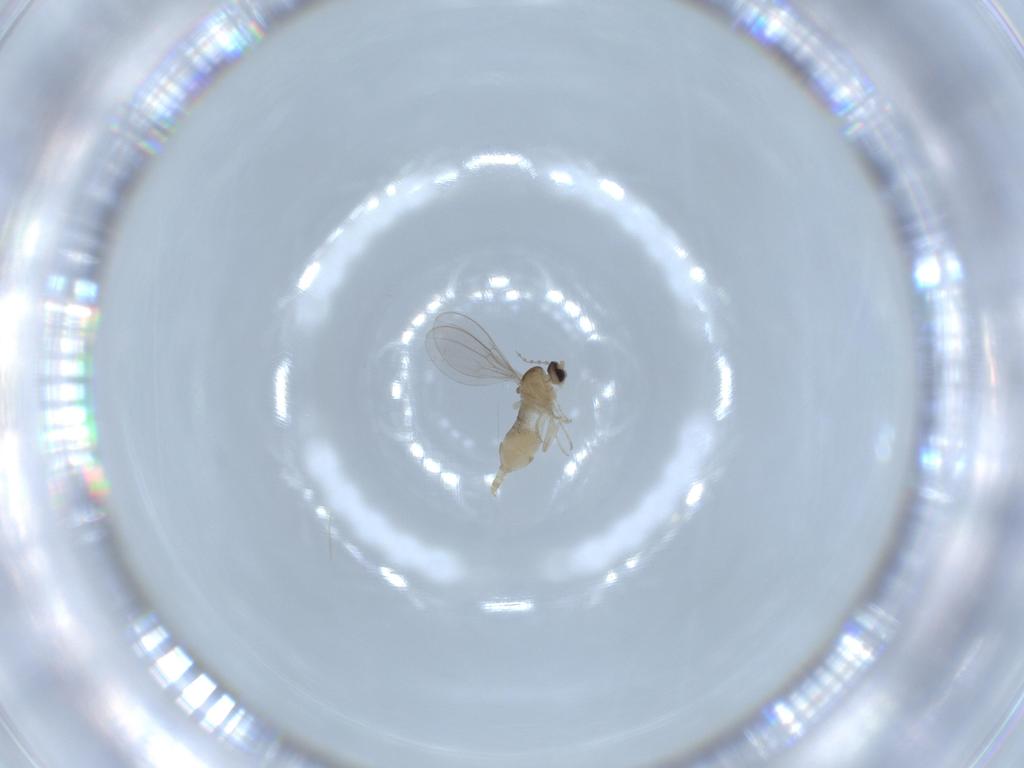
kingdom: Animalia
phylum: Arthropoda
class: Insecta
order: Diptera
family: Cecidomyiidae
